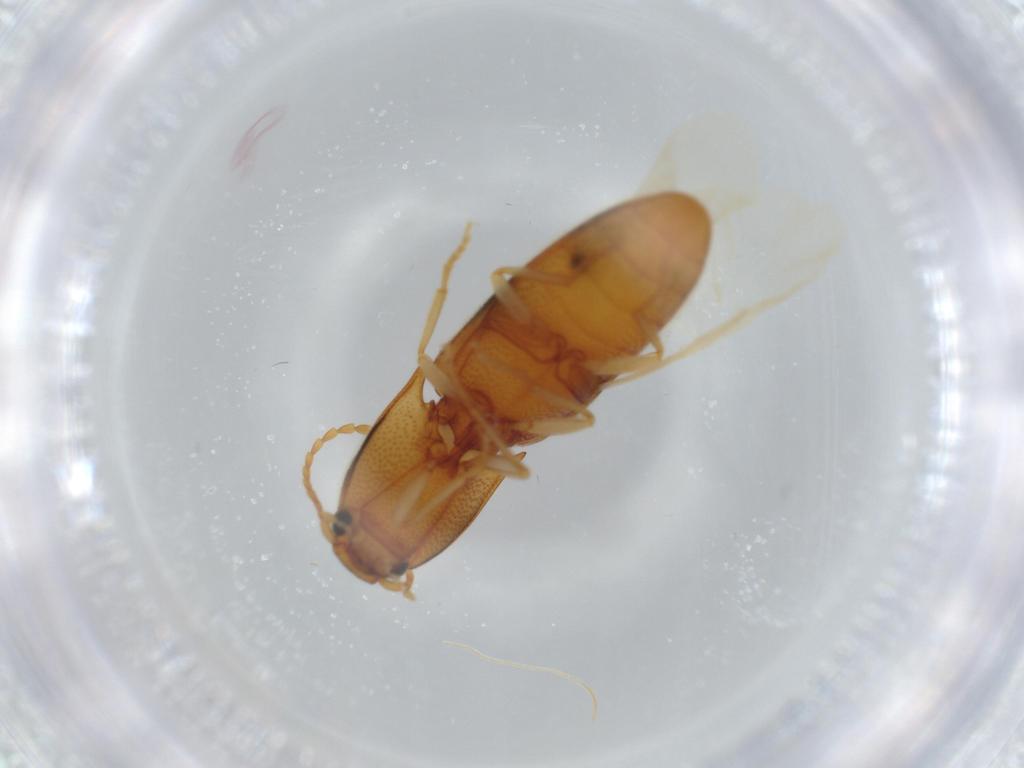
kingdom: Animalia
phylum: Arthropoda
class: Insecta
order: Coleoptera
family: Elateridae
